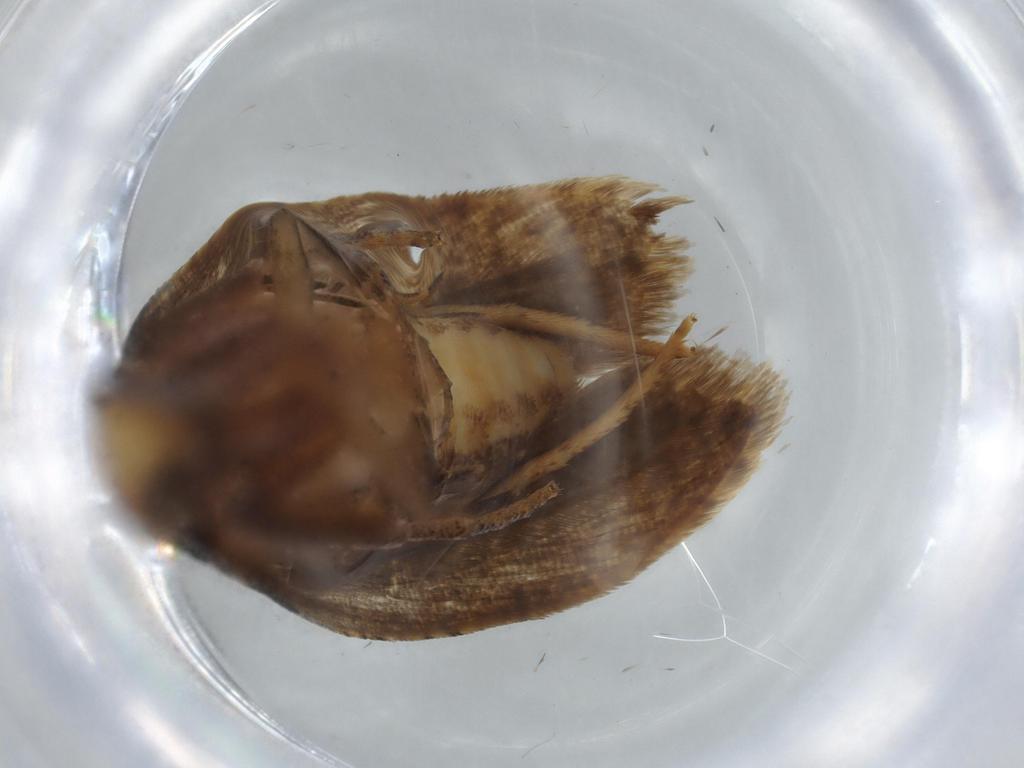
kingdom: Animalia
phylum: Arthropoda
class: Insecta
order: Lepidoptera
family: Gelechiidae
